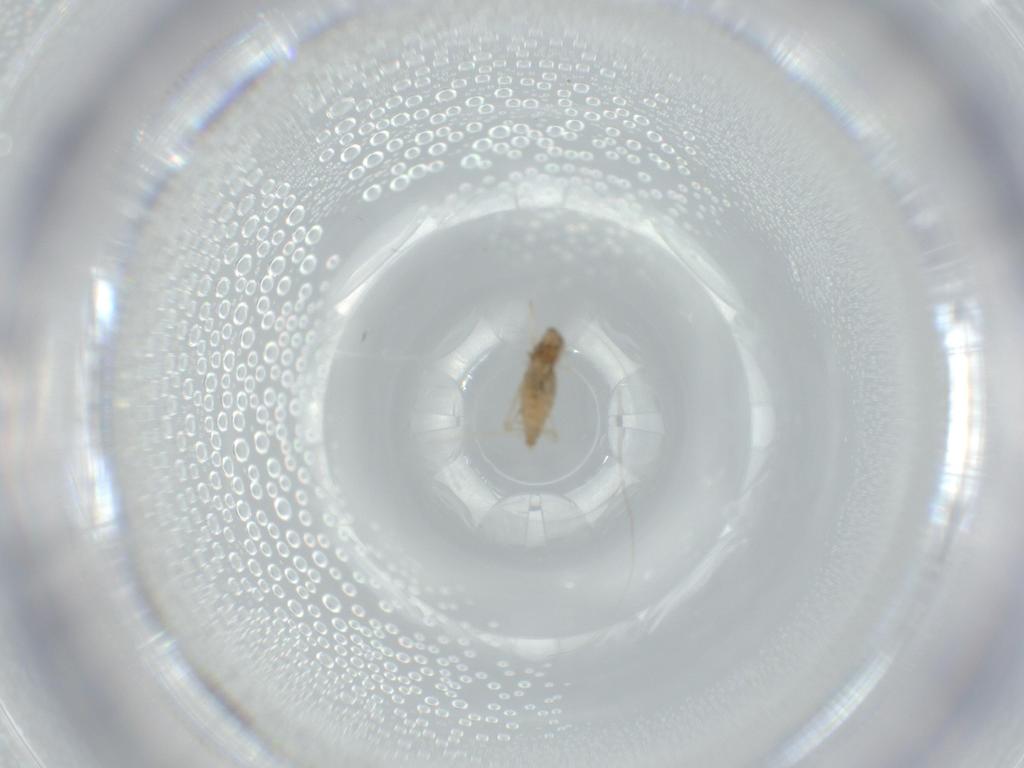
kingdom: Animalia
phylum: Arthropoda
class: Insecta
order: Diptera
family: Cecidomyiidae
